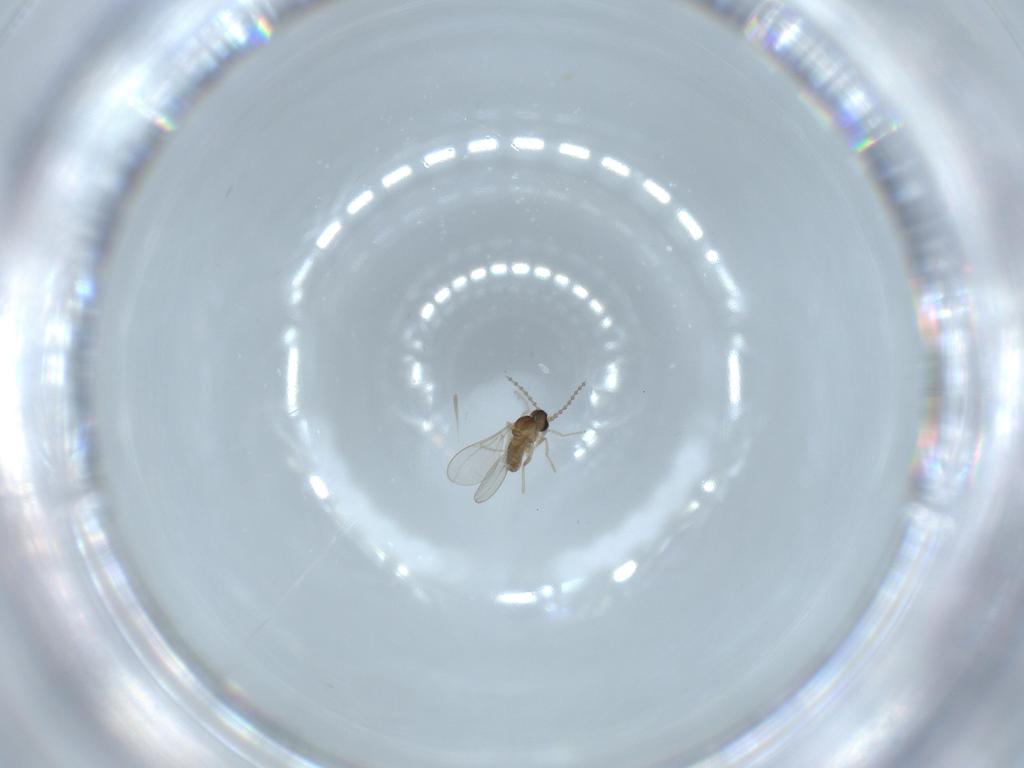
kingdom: Animalia
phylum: Arthropoda
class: Insecta
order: Diptera
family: Cecidomyiidae
